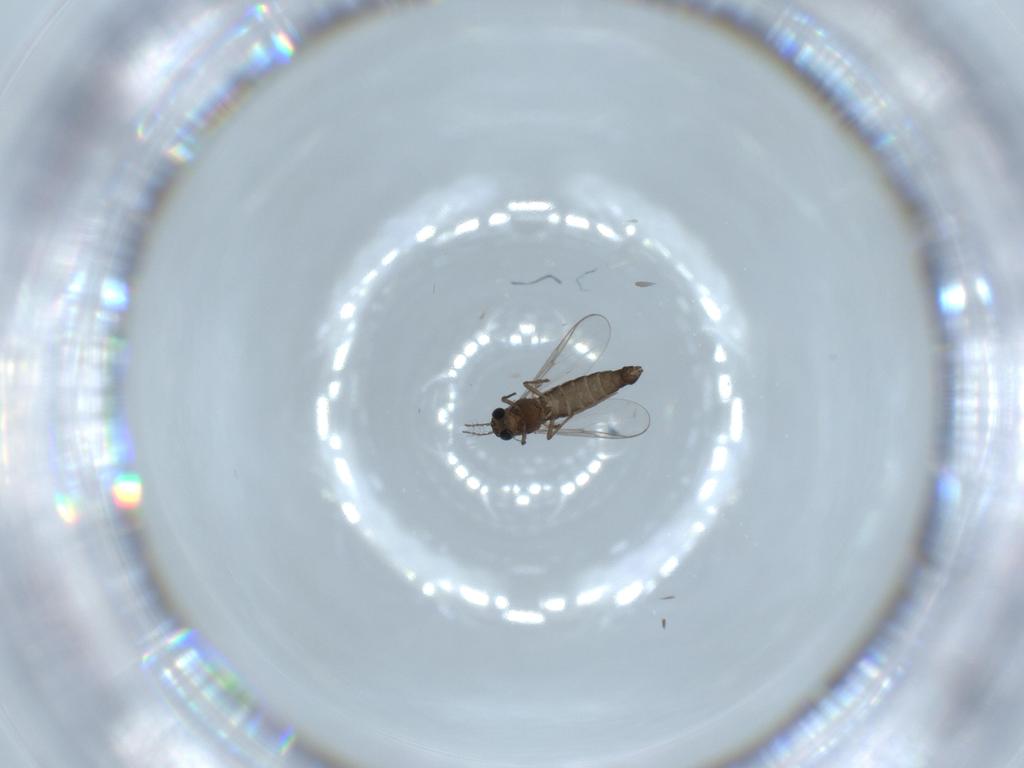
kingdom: Animalia
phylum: Arthropoda
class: Insecta
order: Diptera
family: Chironomidae
